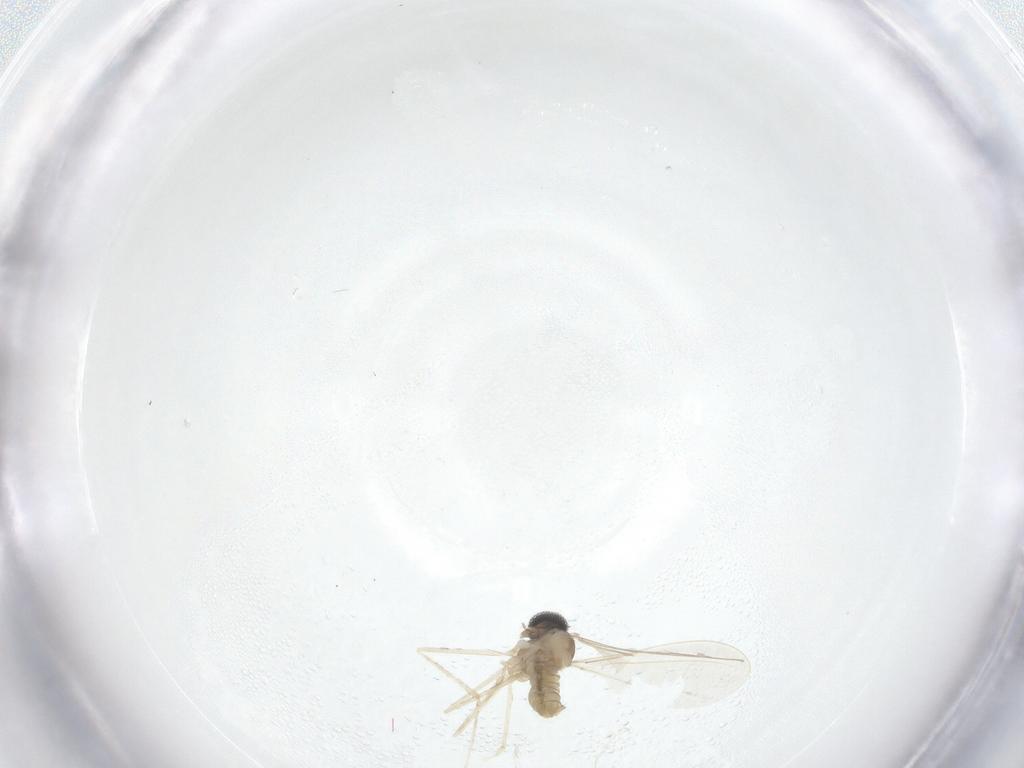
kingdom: Animalia
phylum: Arthropoda
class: Insecta
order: Diptera
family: Cecidomyiidae
